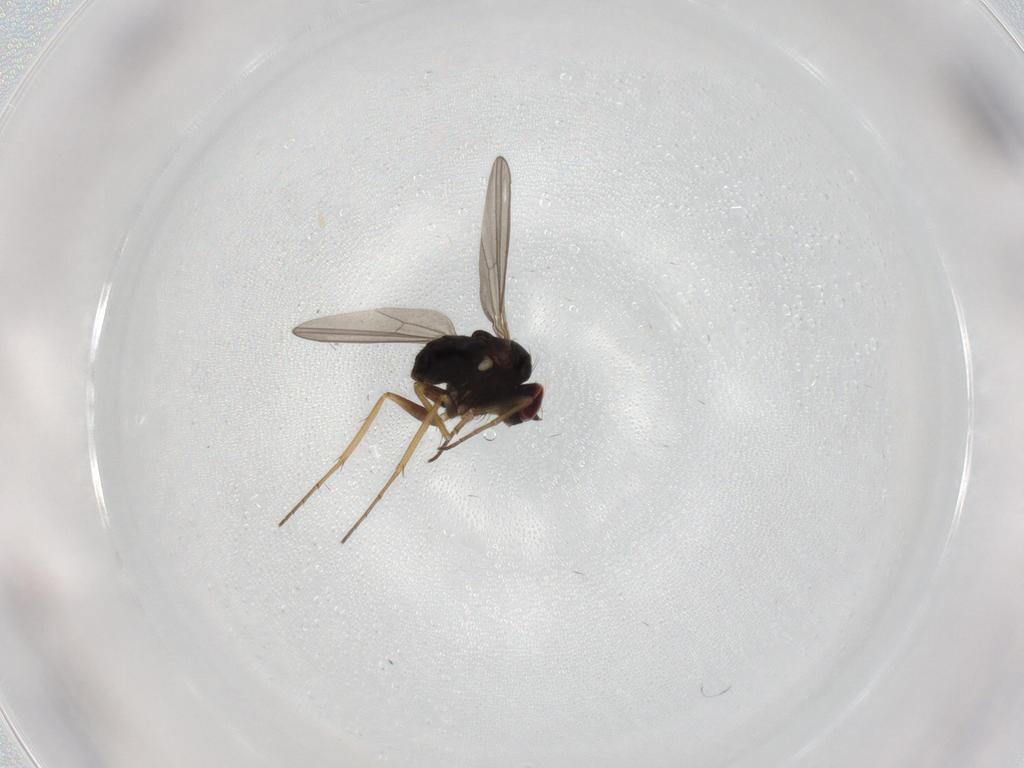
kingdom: Animalia
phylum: Arthropoda
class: Insecta
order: Diptera
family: Dolichopodidae
